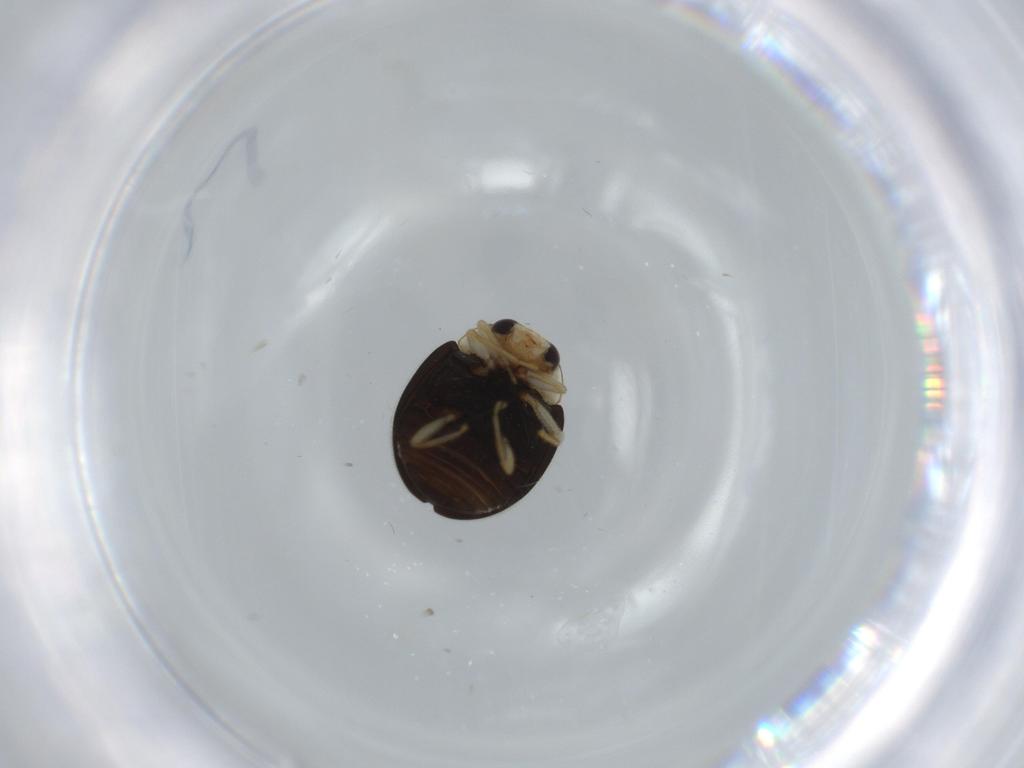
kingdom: Animalia
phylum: Arthropoda
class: Insecta
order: Coleoptera
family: Coccinellidae
